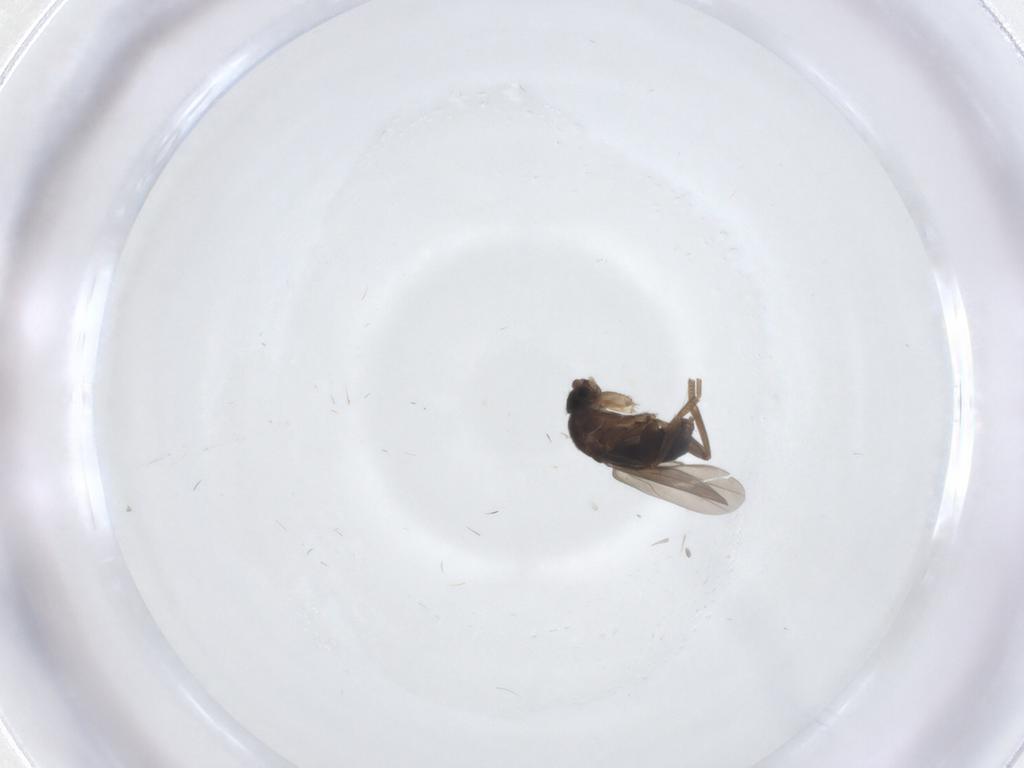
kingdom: Animalia
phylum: Arthropoda
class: Insecta
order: Diptera
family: Phoridae
